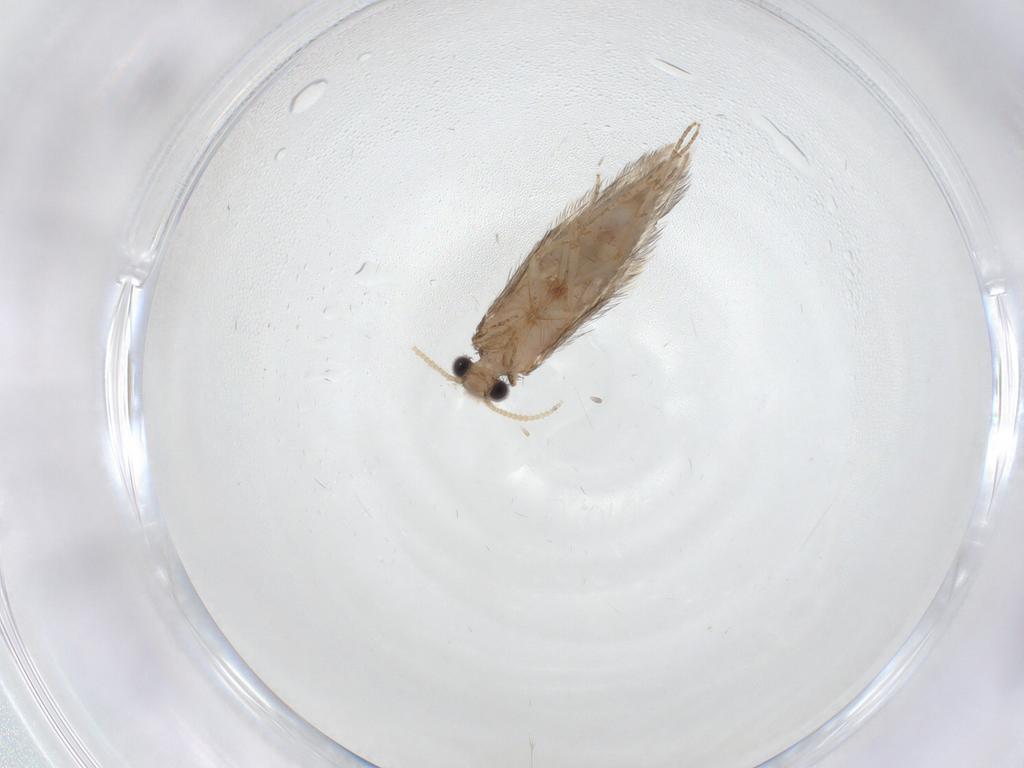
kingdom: Animalia
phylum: Arthropoda
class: Insecta
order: Trichoptera
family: Hydroptilidae
